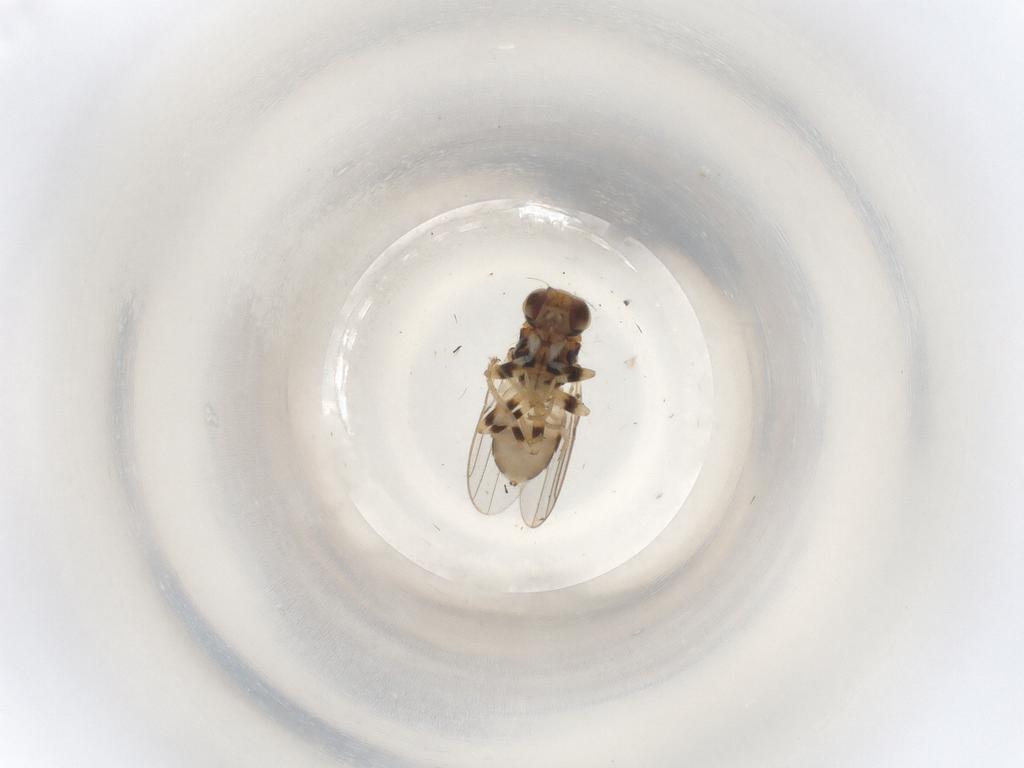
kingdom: Animalia
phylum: Arthropoda
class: Insecta
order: Diptera
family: Chloropidae
